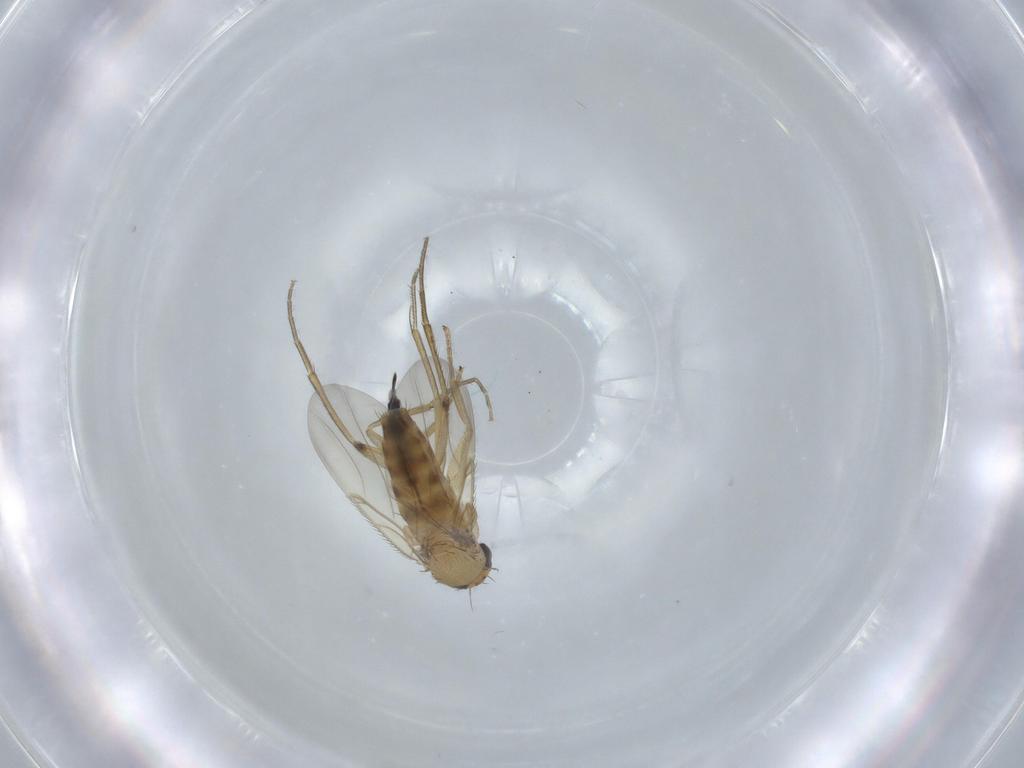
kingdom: Animalia
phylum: Arthropoda
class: Insecta
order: Diptera
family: Phoridae
